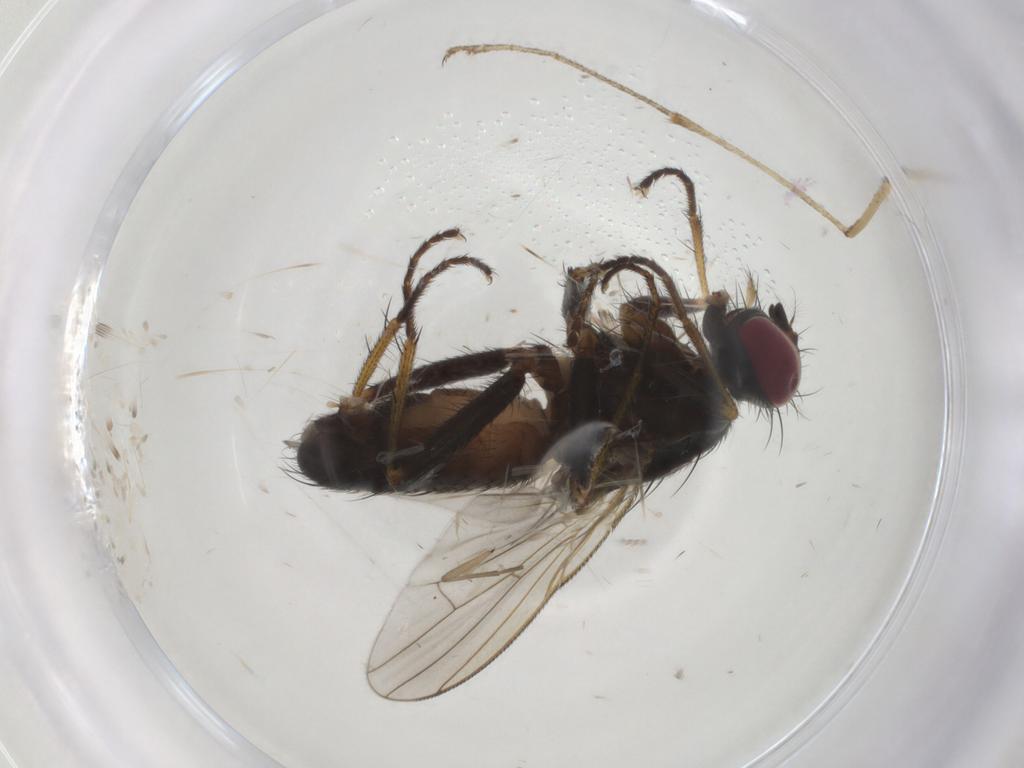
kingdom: Animalia
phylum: Arthropoda
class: Insecta
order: Diptera
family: Culicidae
